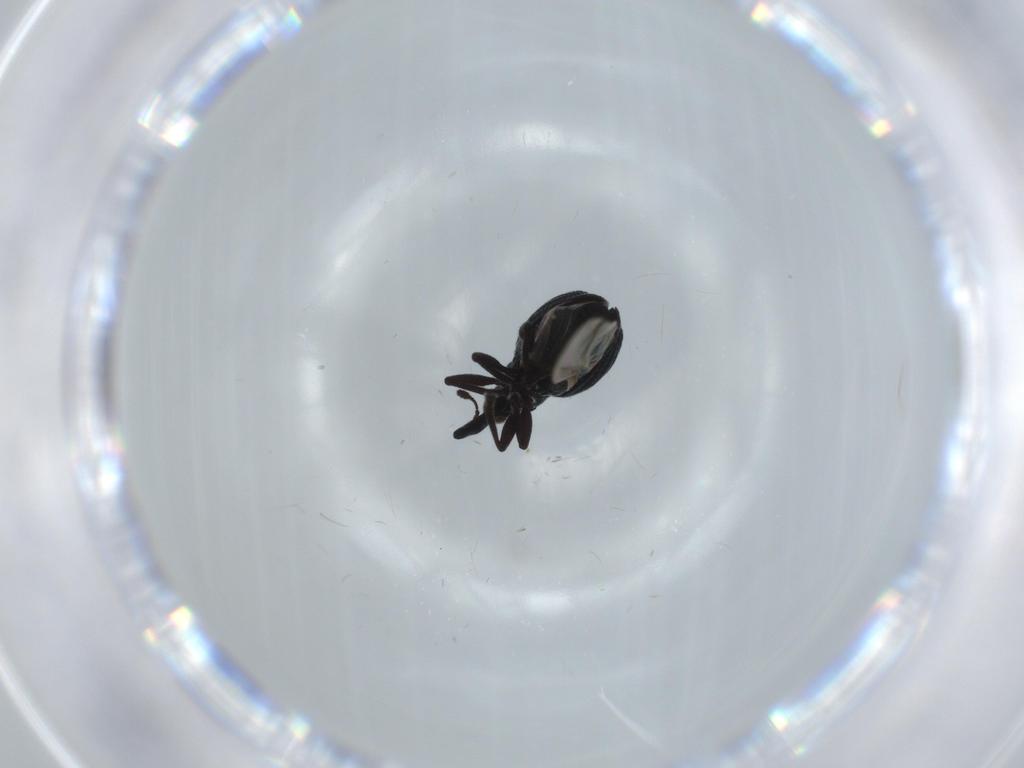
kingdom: Animalia
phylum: Arthropoda
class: Insecta
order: Coleoptera
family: Brentidae
